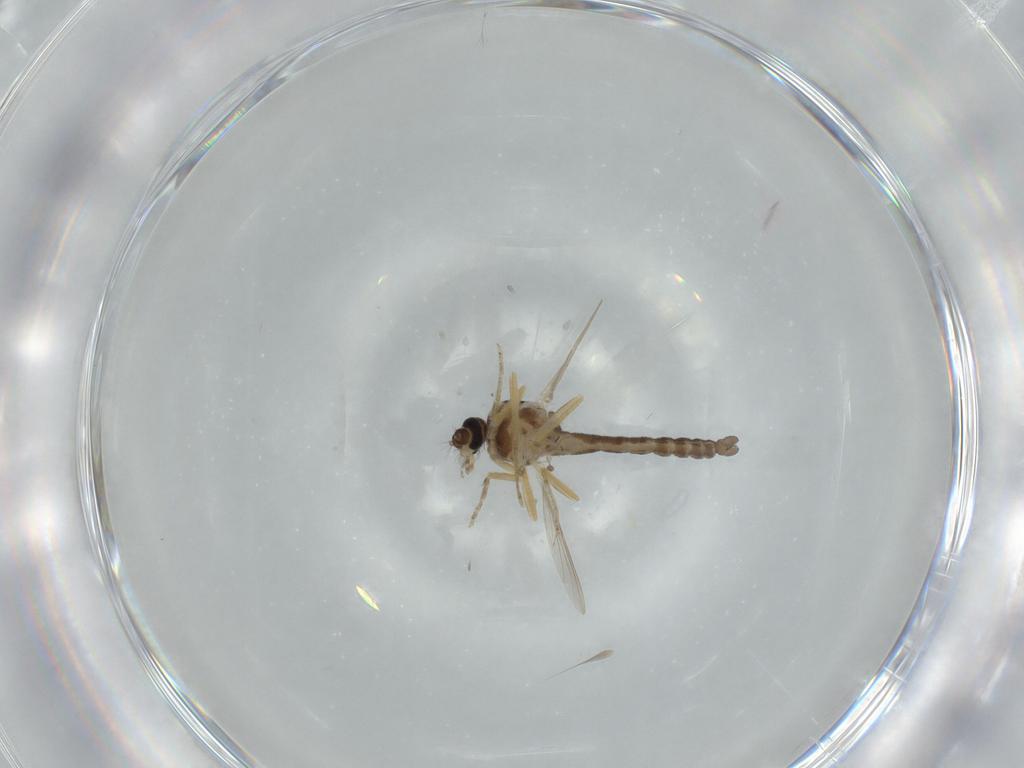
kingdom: Animalia
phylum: Arthropoda
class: Insecta
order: Diptera
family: Ceratopogonidae
